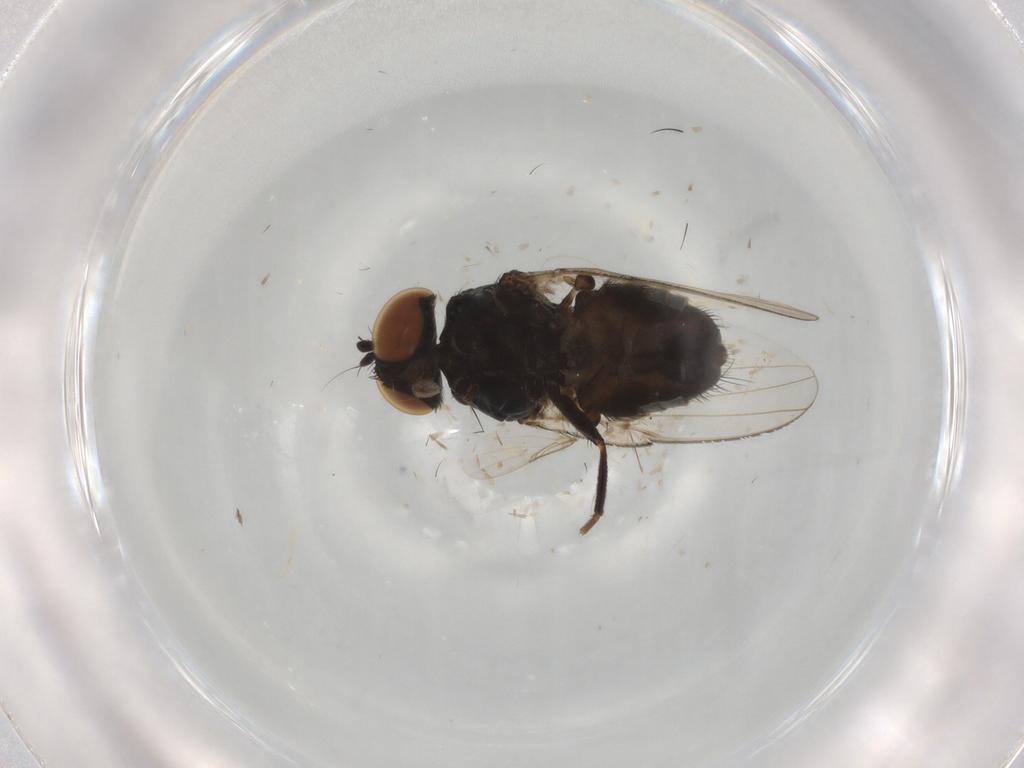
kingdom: Animalia
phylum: Arthropoda
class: Insecta
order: Diptera
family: Milichiidae
